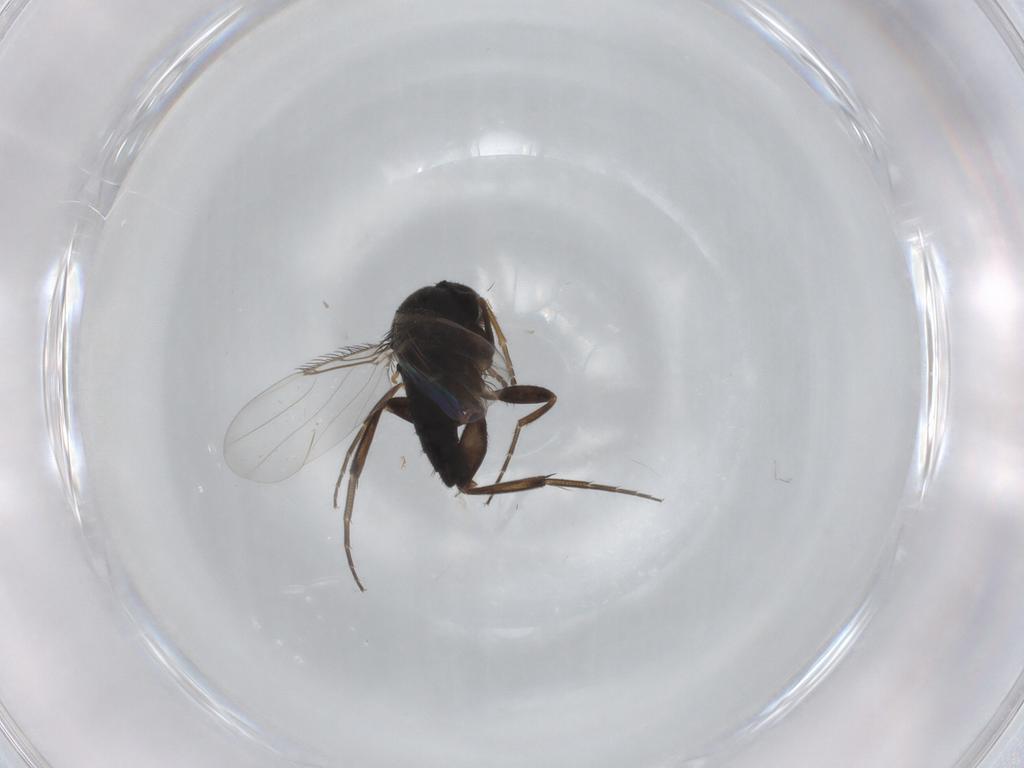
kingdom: Animalia
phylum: Arthropoda
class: Insecta
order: Diptera
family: Phoridae
